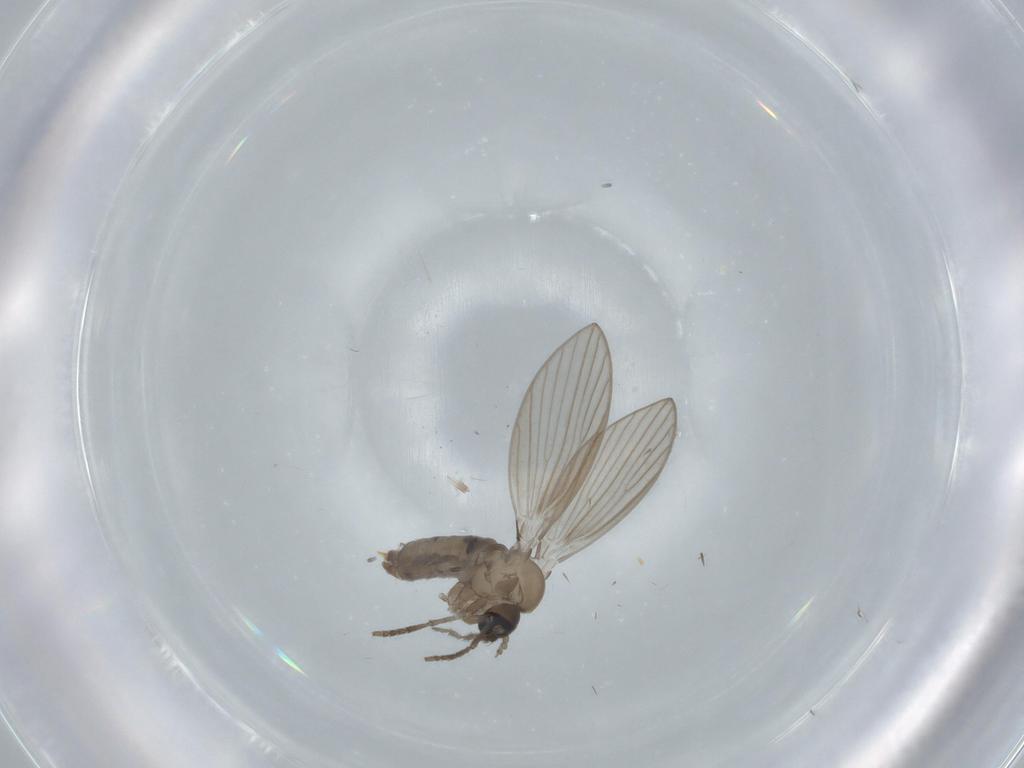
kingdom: Animalia
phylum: Arthropoda
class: Insecta
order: Diptera
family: Psychodidae
